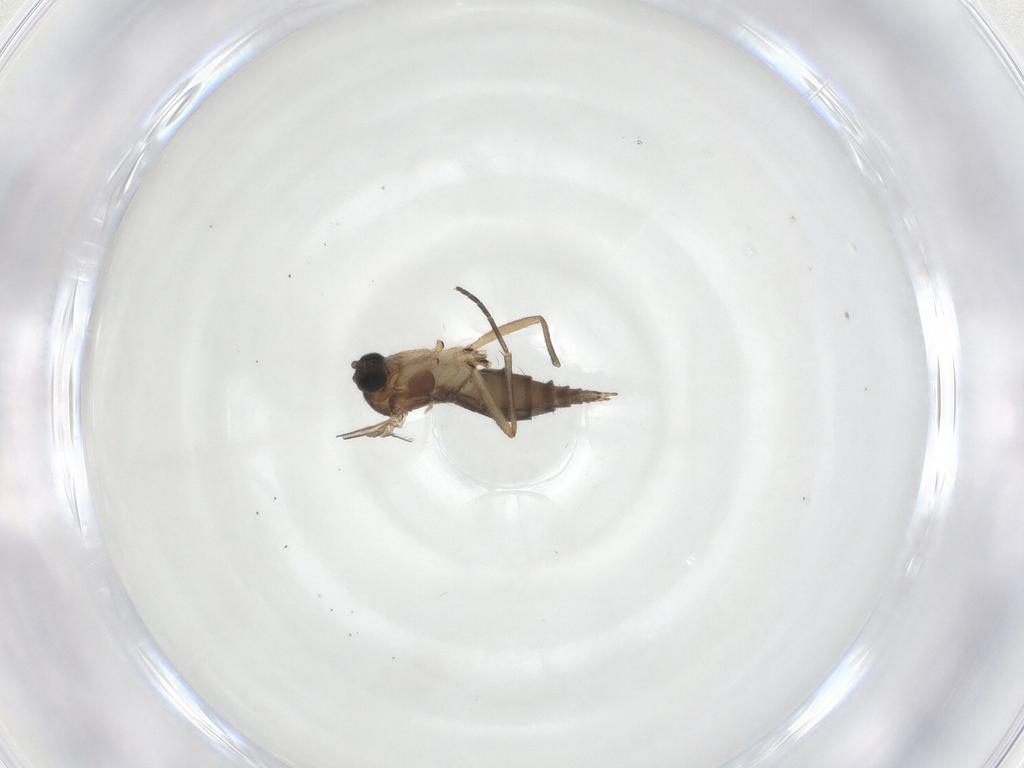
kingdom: Animalia
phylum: Arthropoda
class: Insecta
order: Diptera
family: Sciaridae
